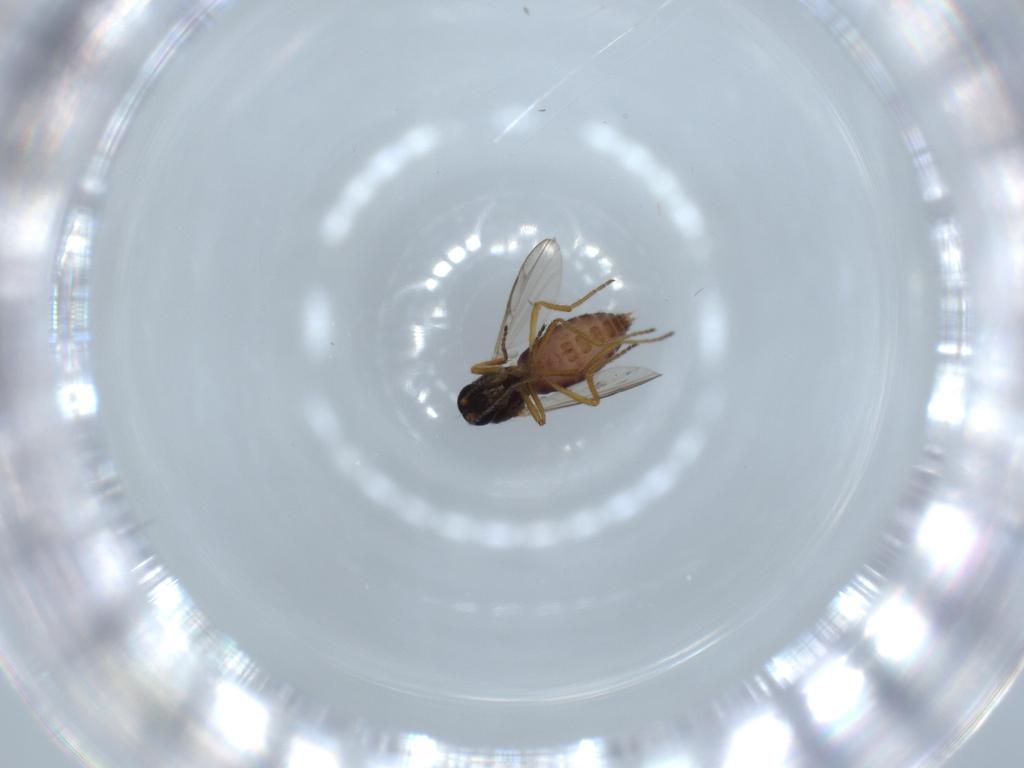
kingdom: Animalia
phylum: Arthropoda
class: Insecta
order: Diptera
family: Ceratopogonidae
